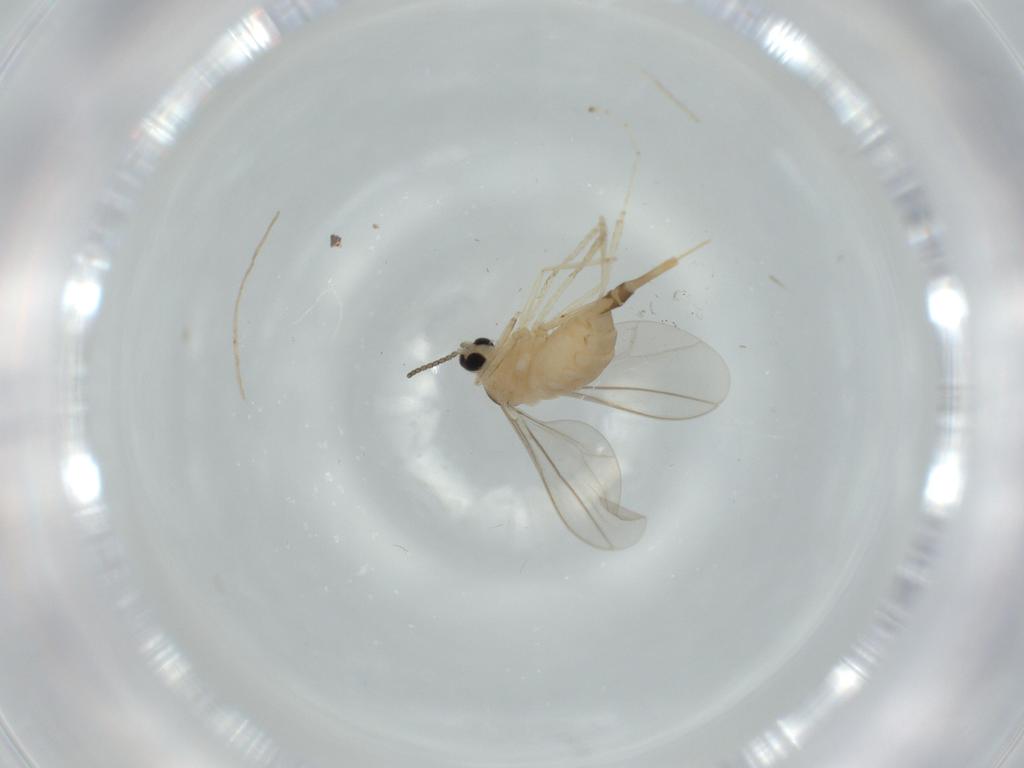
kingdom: Animalia
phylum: Arthropoda
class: Insecta
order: Diptera
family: Cecidomyiidae
